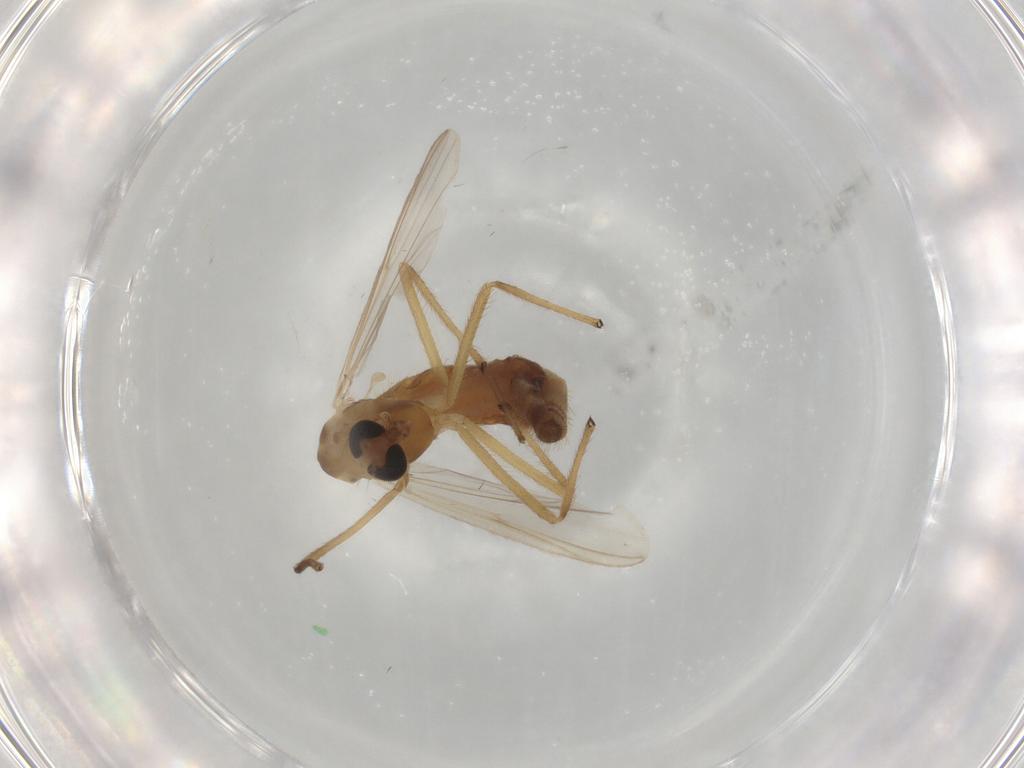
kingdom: Animalia
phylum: Arthropoda
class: Insecta
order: Diptera
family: Chironomidae
